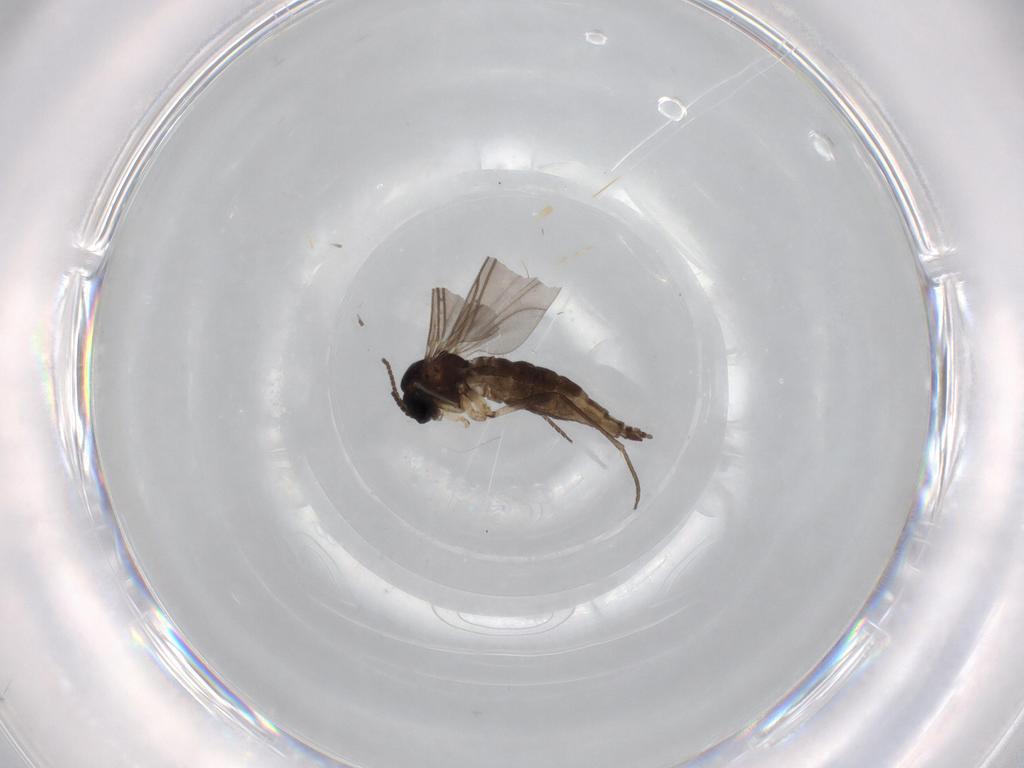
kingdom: Animalia
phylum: Arthropoda
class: Insecta
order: Diptera
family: Sciaridae
